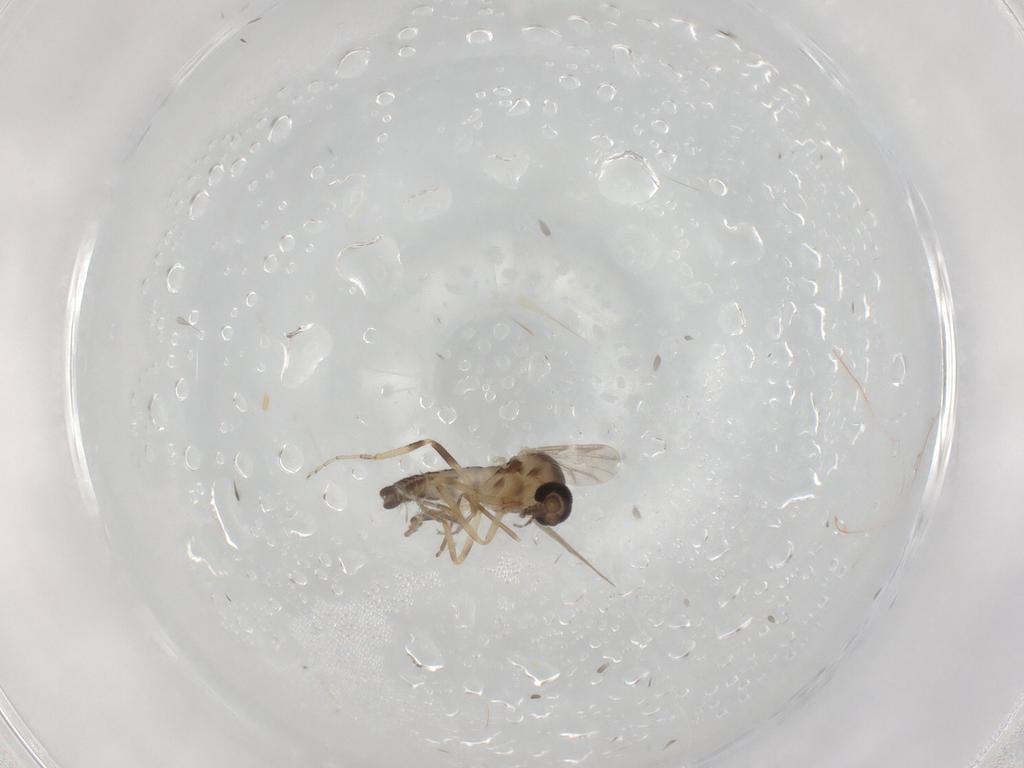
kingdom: Animalia
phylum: Arthropoda
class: Insecta
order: Diptera
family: Ceratopogonidae
